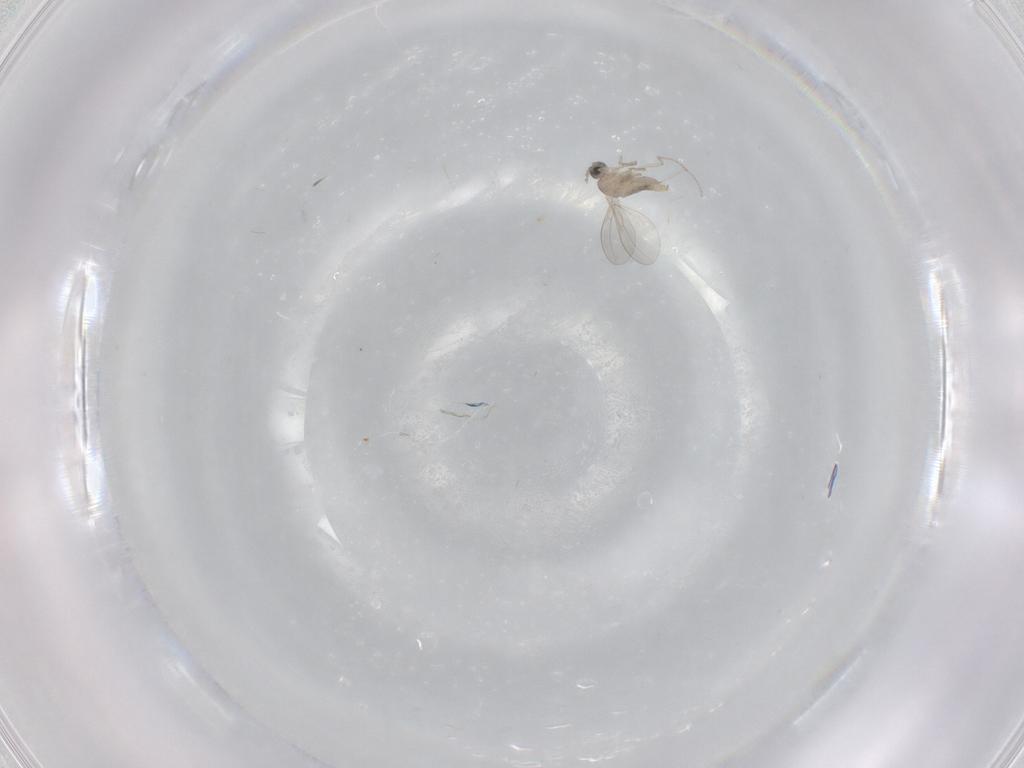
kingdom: Animalia
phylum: Arthropoda
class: Insecta
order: Diptera
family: Cecidomyiidae
